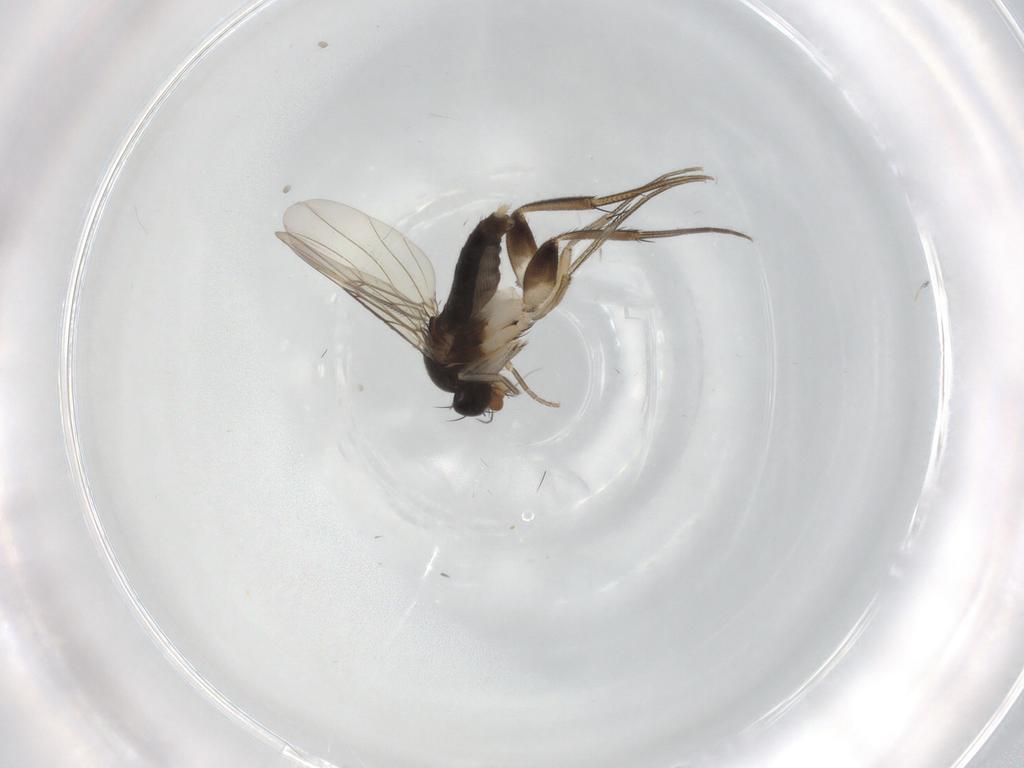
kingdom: Animalia
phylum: Arthropoda
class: Insecta
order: Diptera
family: Phoridae
